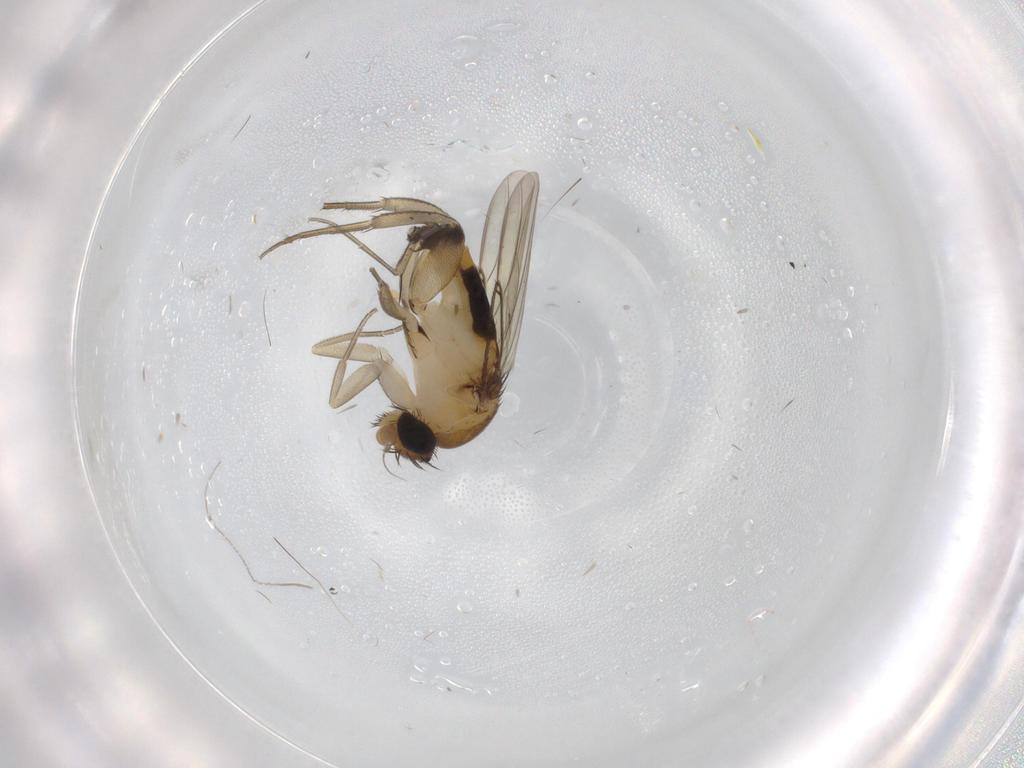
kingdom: Animalia
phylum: Arthropoda
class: Insecta
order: Diptera
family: Phoridae
